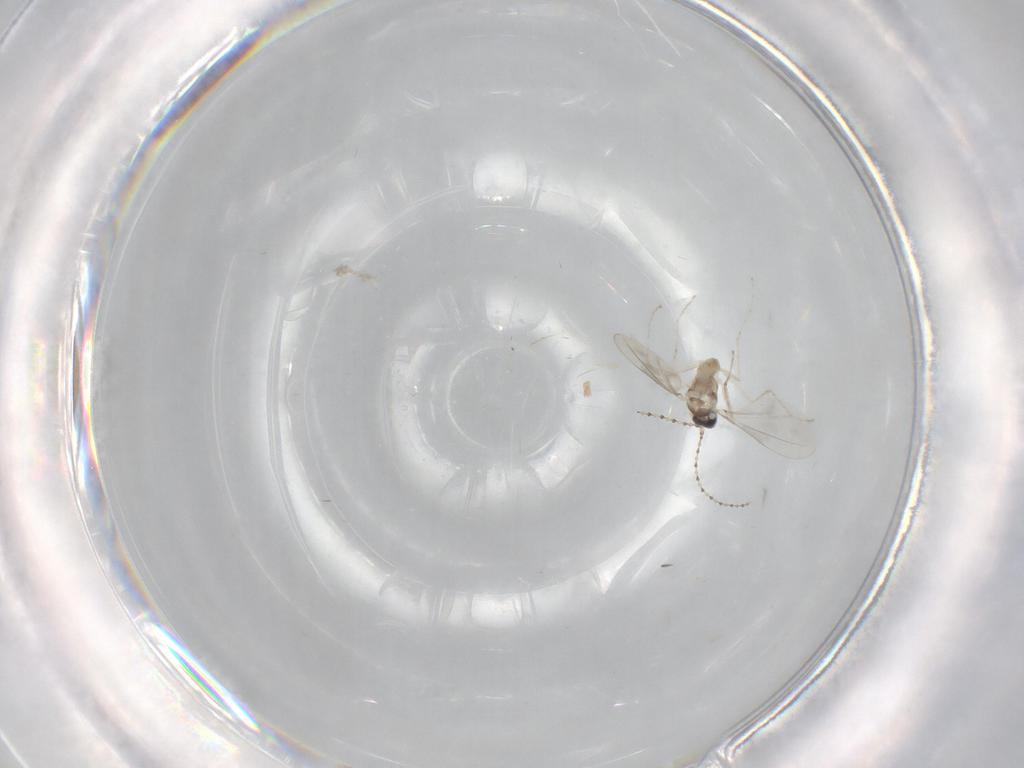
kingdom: Animalia
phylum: Arthropoda
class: Insecta
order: Diptera
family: Cecidomyiidae
